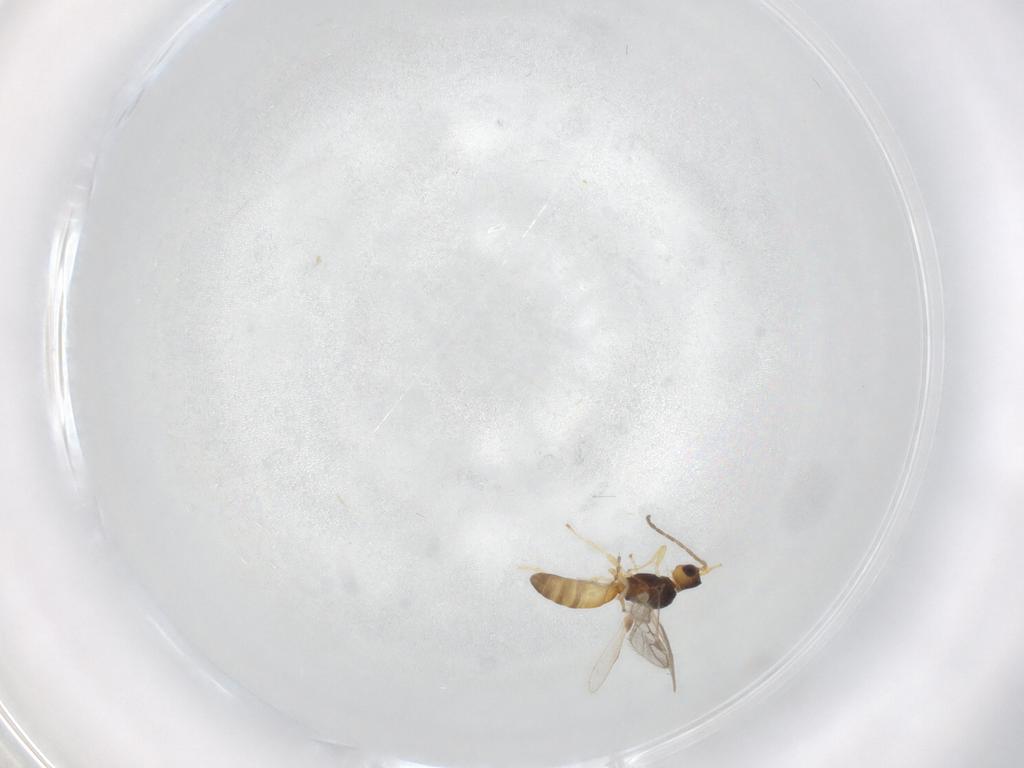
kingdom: Animalia
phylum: Arthropoda
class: Insecta
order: Hymenoptera
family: Braconidae
